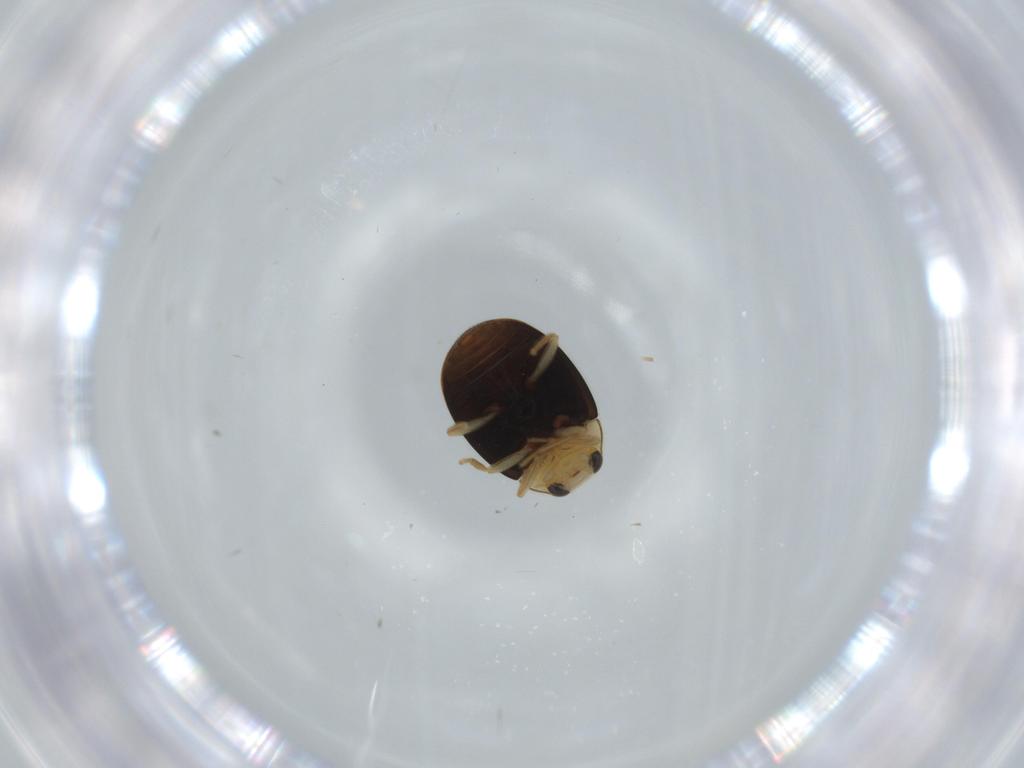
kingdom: Animalia
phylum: Arthropoda
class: Insecta
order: Coleoptera
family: Coccinellidae
